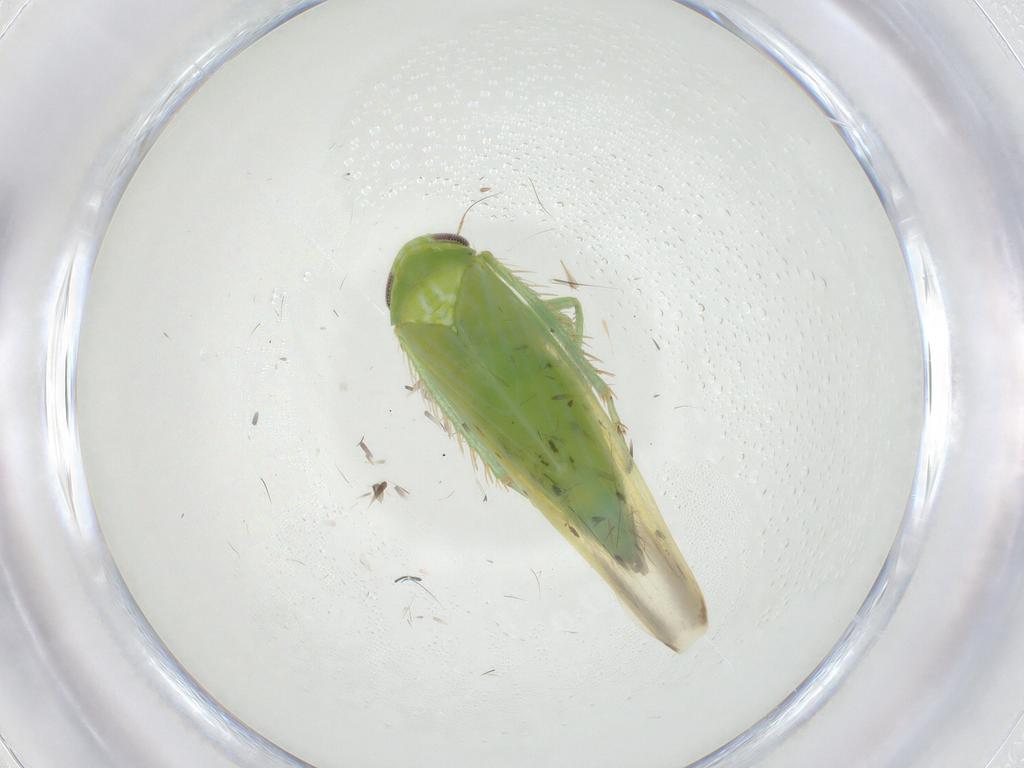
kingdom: Animalia
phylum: Arthropoda
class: Insecta
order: Hemiptera
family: Cicadellidae
